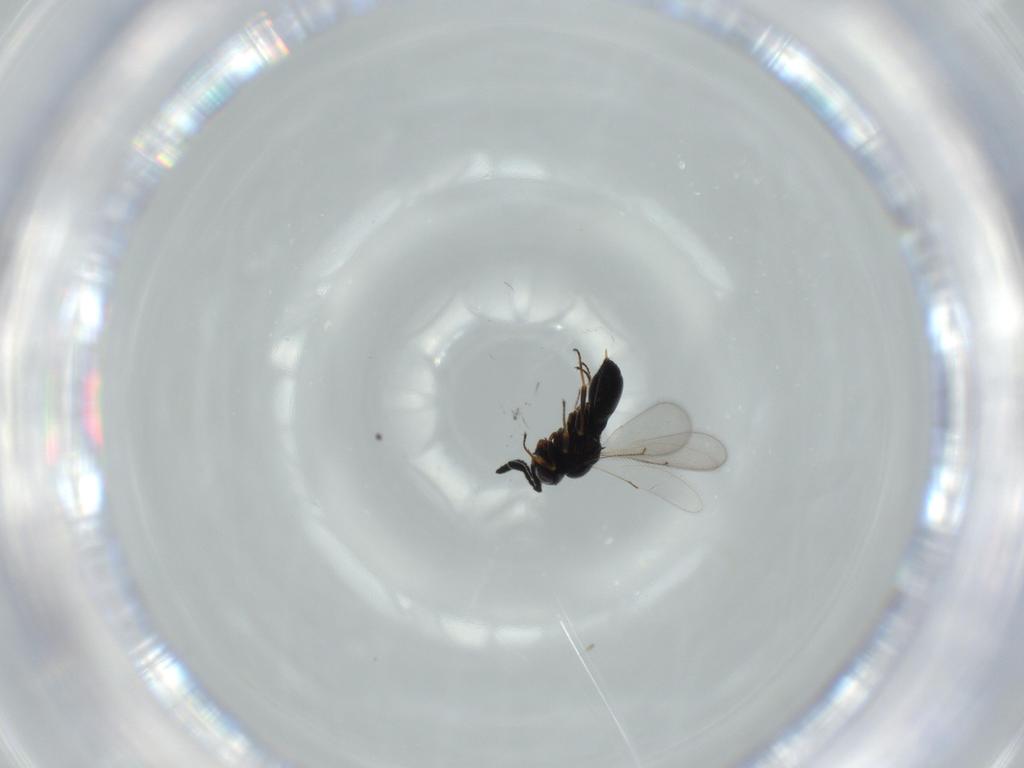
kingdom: Animalia
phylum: Arthropoda
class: Insecta
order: Hymenoptera
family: Scelionidae
